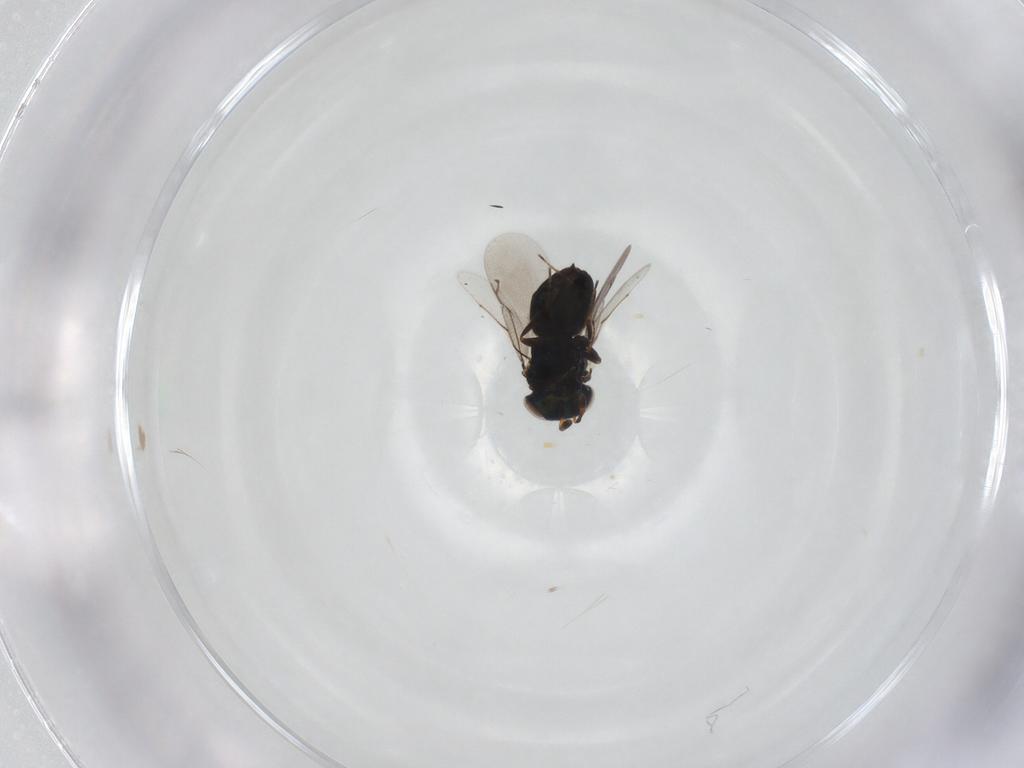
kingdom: Animalia
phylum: Arthropoda
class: Insecta
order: Hymenoptera
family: Eunotidae
